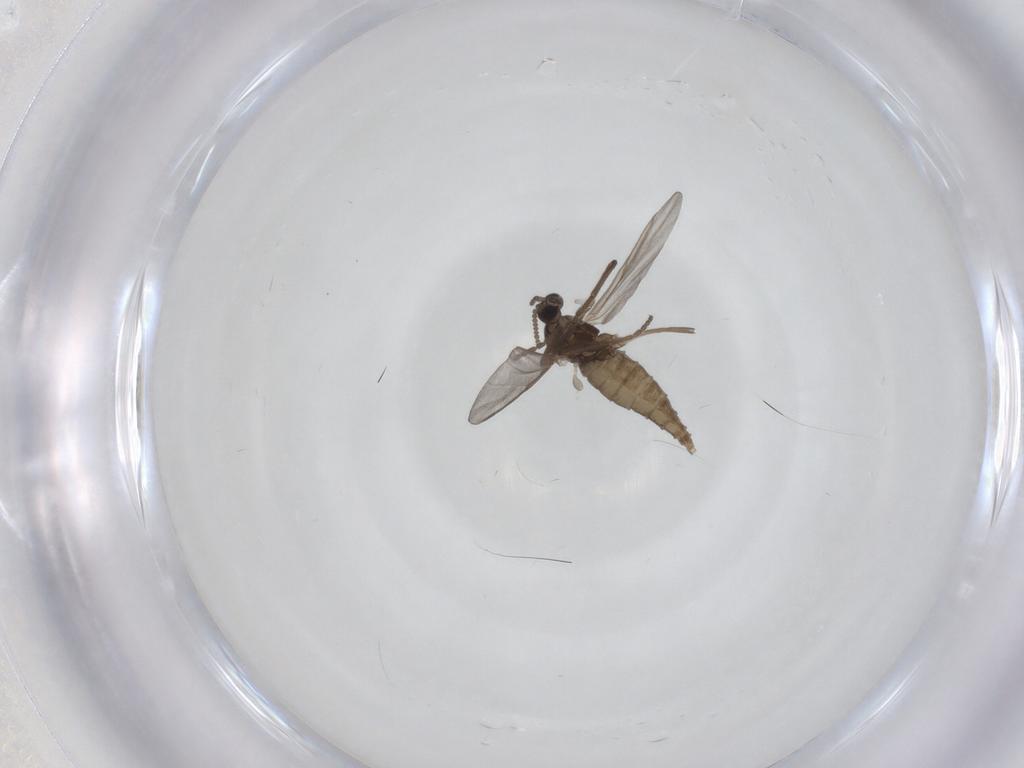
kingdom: Animalia
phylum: Arthropoda
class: Insecta
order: Diptera
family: Cecidomyiidae
